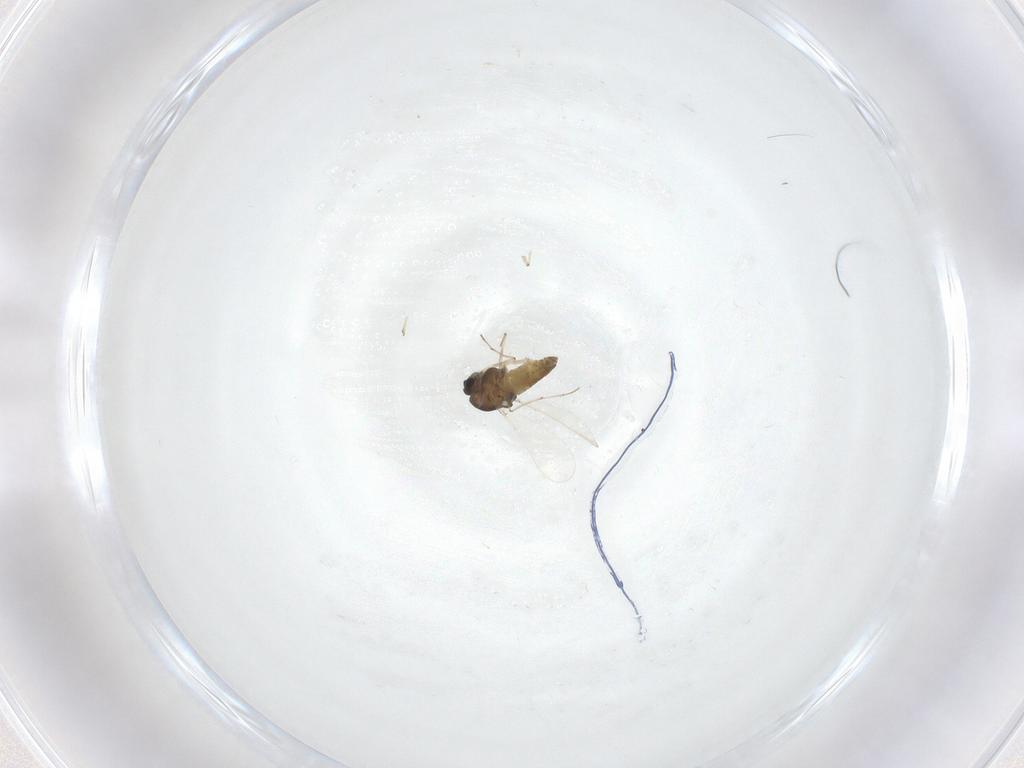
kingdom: Animalia
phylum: Arthropoda
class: Insecta
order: Diptera
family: Chironomidae
